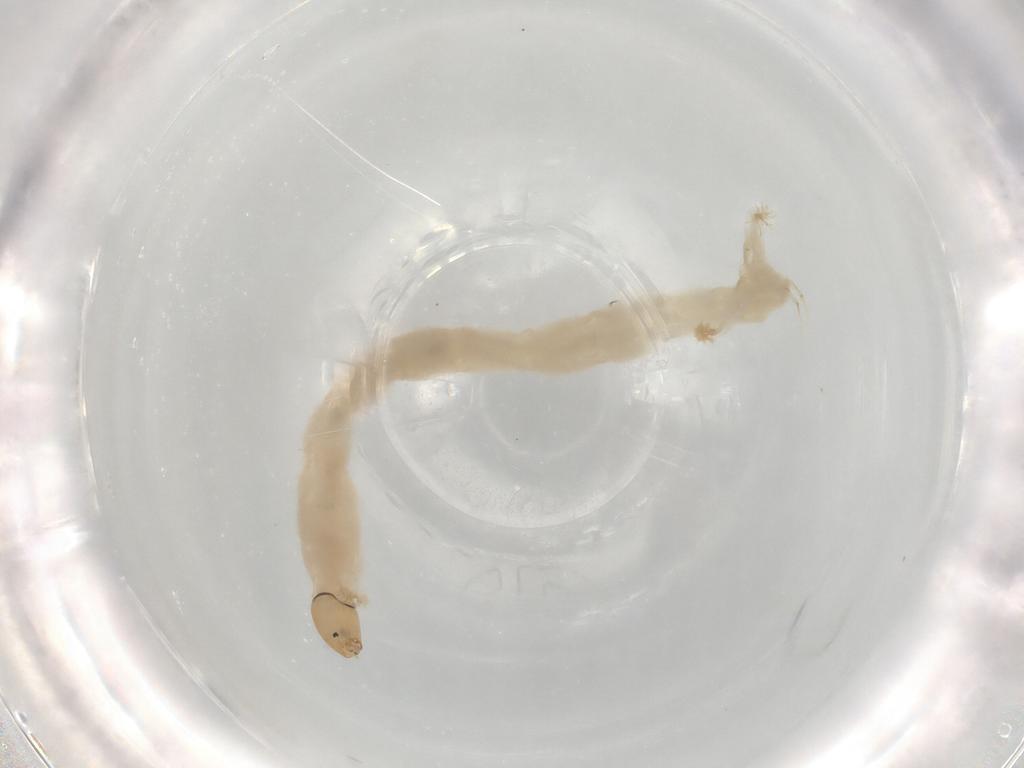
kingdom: Animalia
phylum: Arthropoda
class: Insecta
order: Diptera
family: Chironomidae
